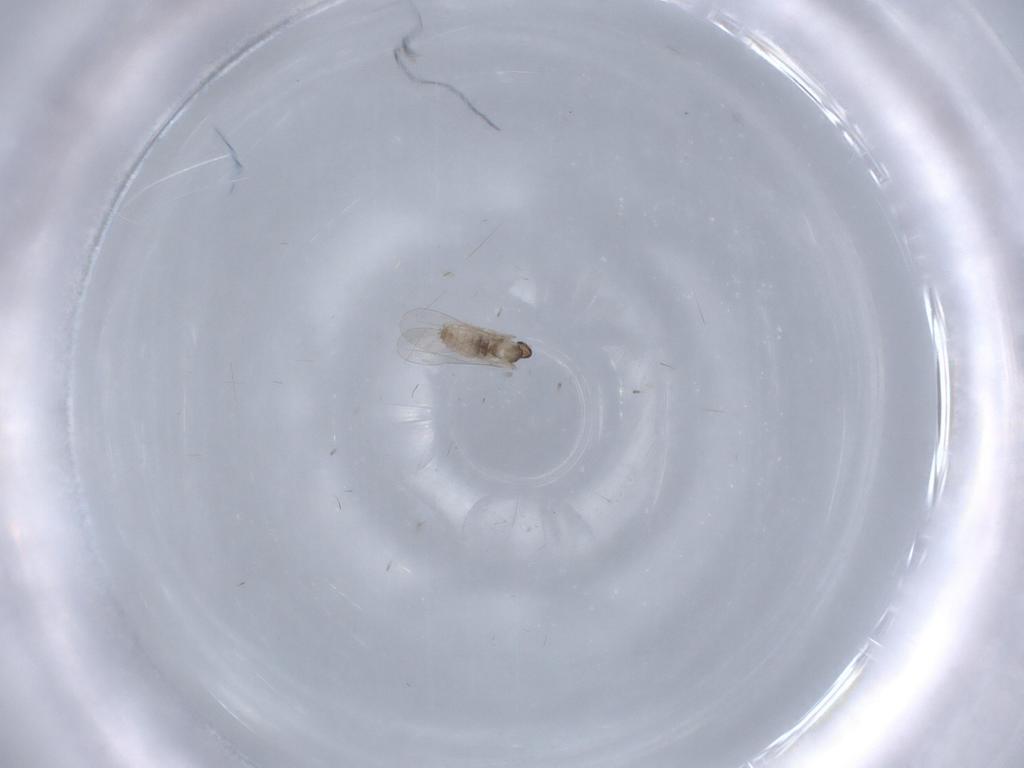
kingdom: Animalia
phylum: Arthropoda
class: Insecta
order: Diptera
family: Cecidomyiidae
